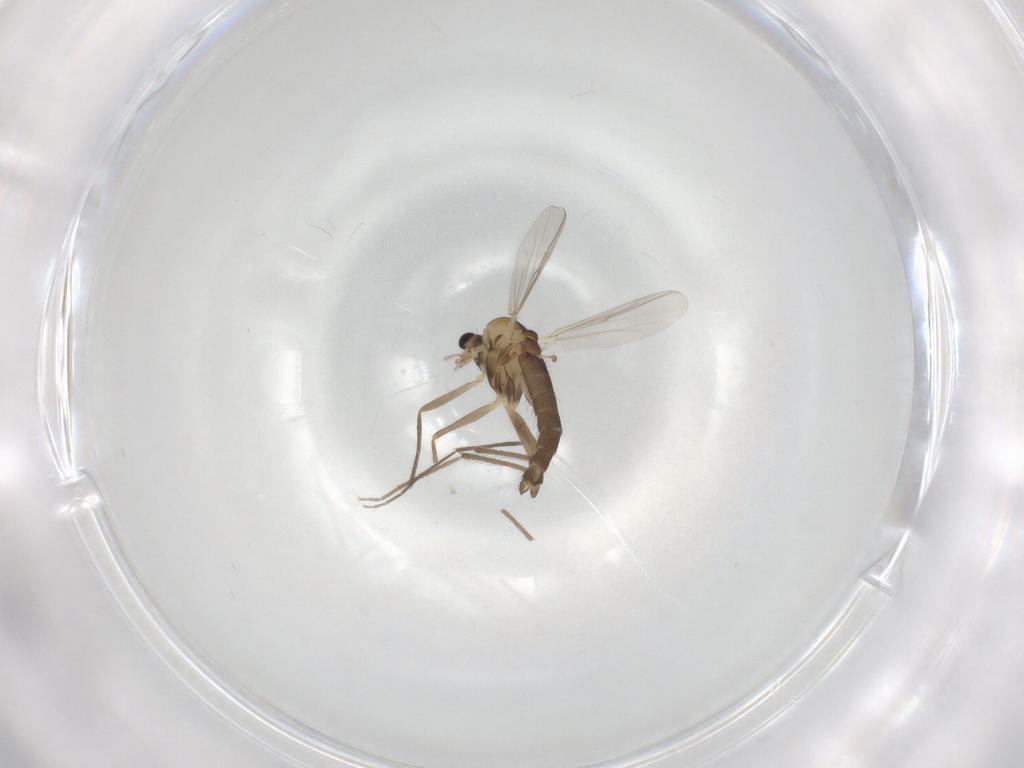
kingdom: Animalia
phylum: Arthropoda
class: Insecta
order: Diptera
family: Chironomidae
